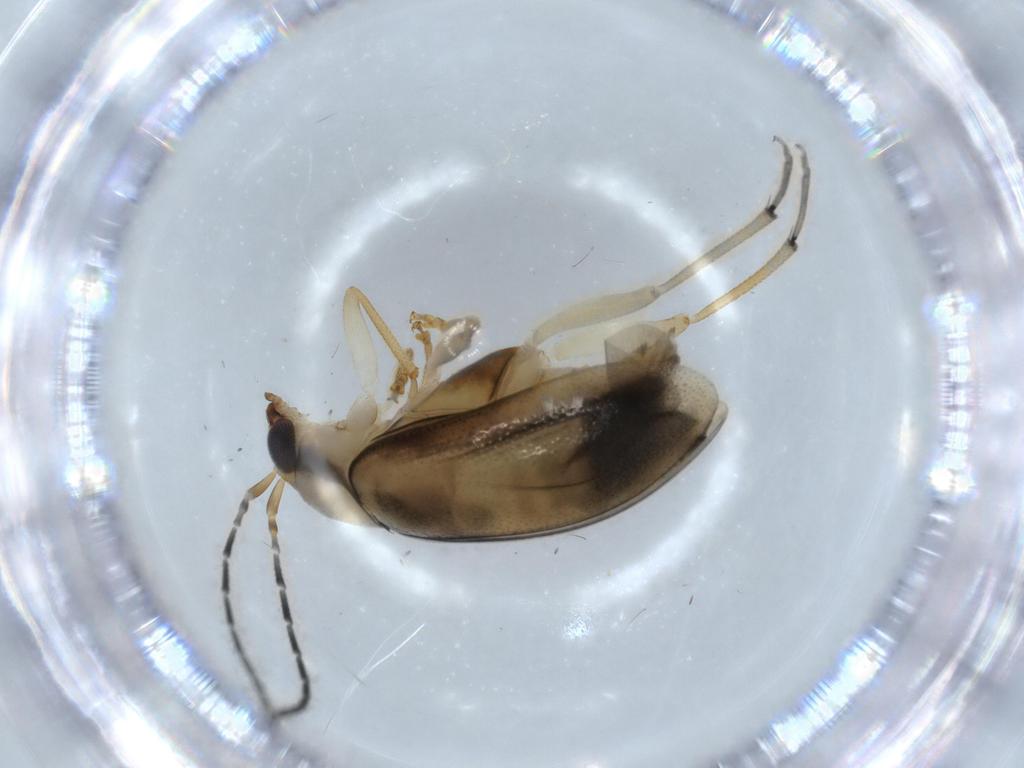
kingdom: Animalia
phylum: Arthropoda
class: Insecta
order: Coleoptera
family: Chrysomelidae
